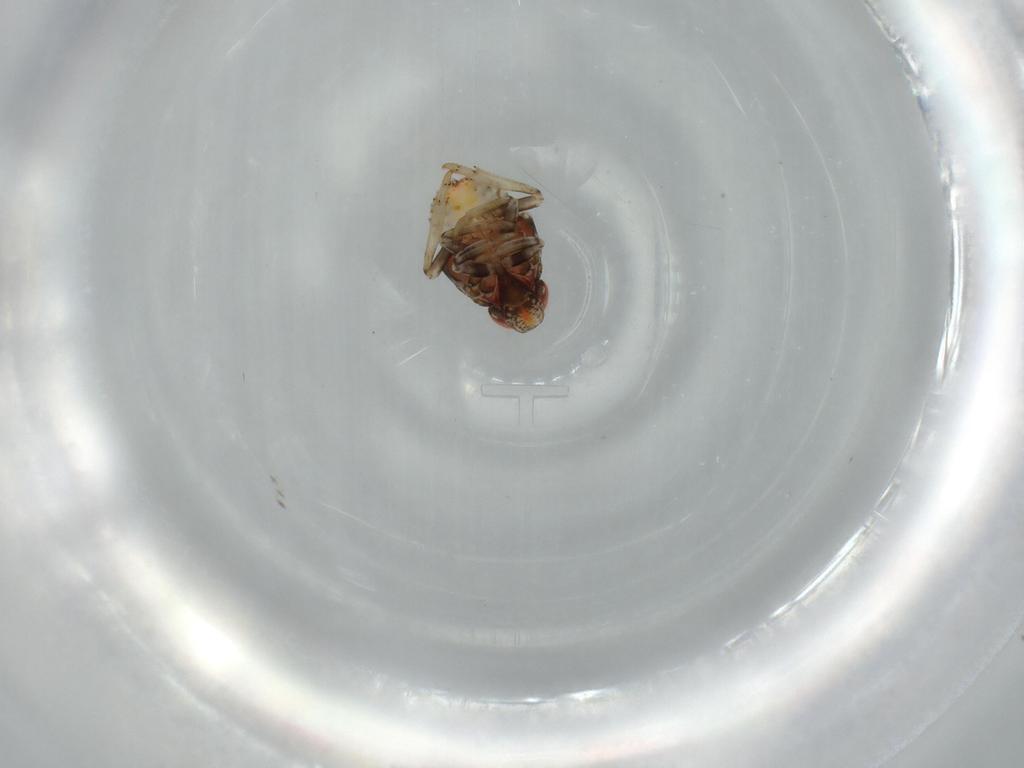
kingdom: Animalia
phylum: Arthropoda
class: Insecta
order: Hemiptera
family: Issidae
